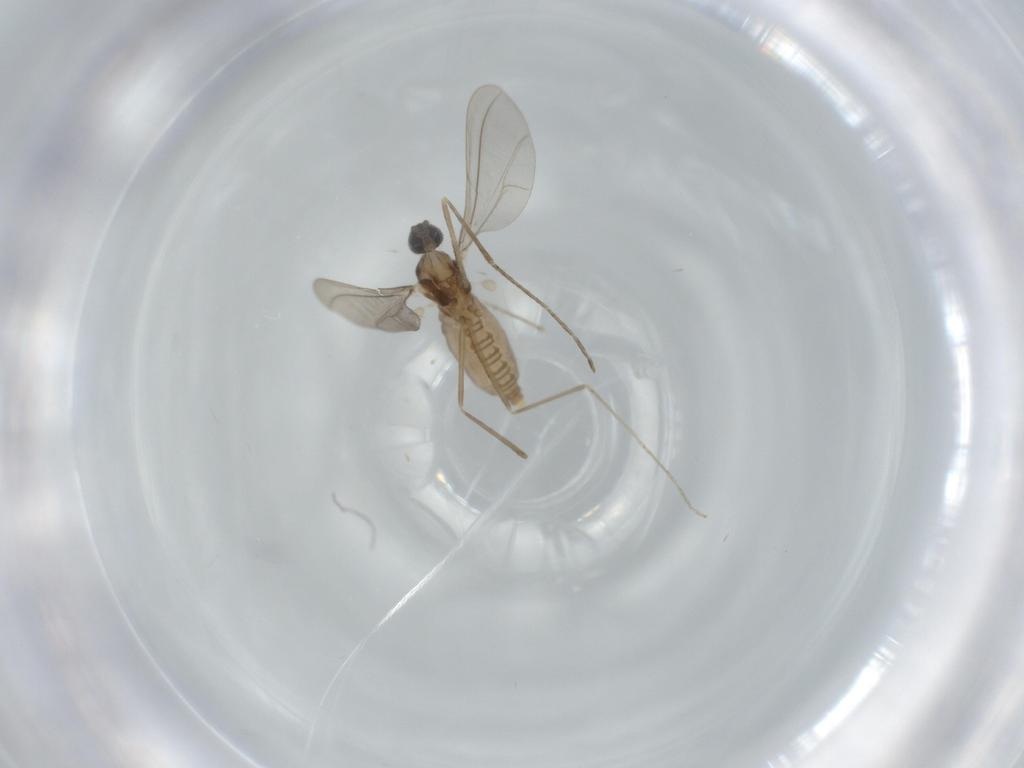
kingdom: Animalia
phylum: Arthropoda
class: Insecta
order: Diptera
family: Cecidomyiidae
